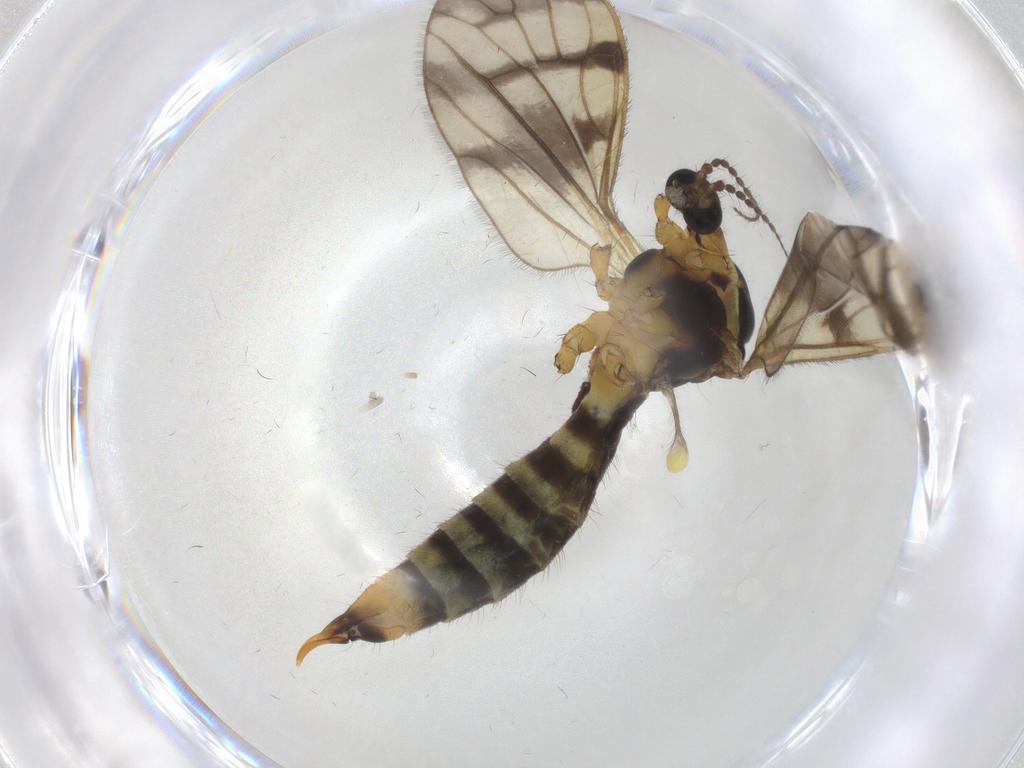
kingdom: Animalia
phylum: Arthropoda
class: Insecta
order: Diptera
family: Limoniidae
